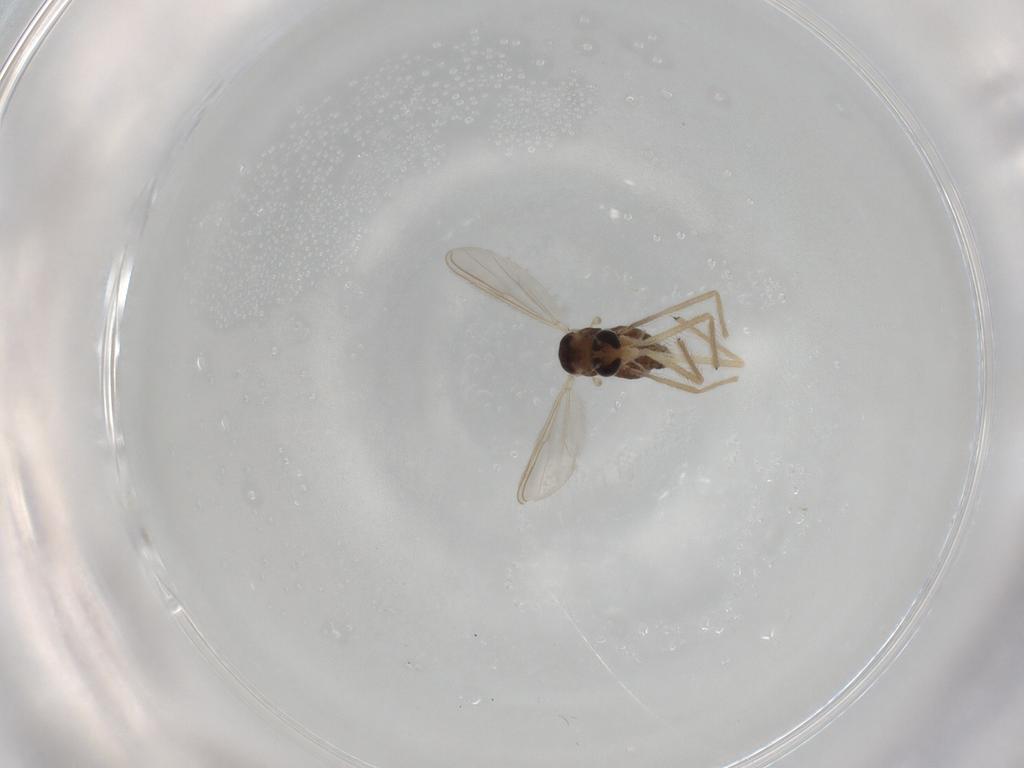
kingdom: Animalia
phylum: Arthropoda
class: Insecta
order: Diptera
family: Chironomidae
